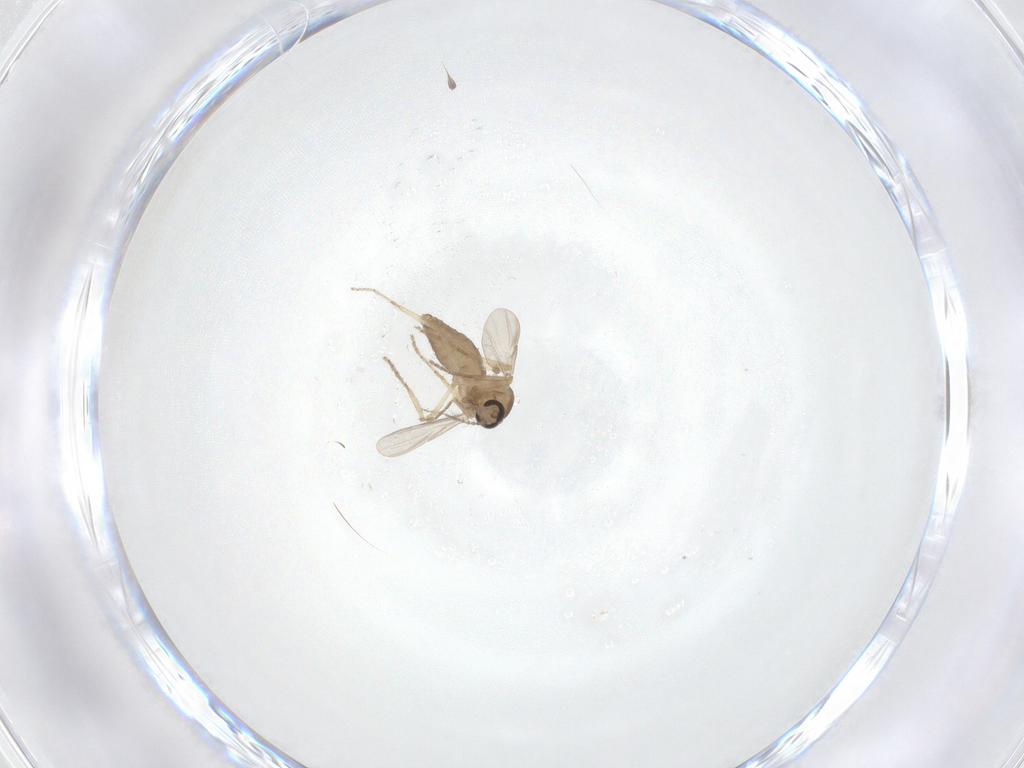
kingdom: Animalia
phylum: Arthropoda
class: Insecta
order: Diptera
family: Ceratopogonidae
